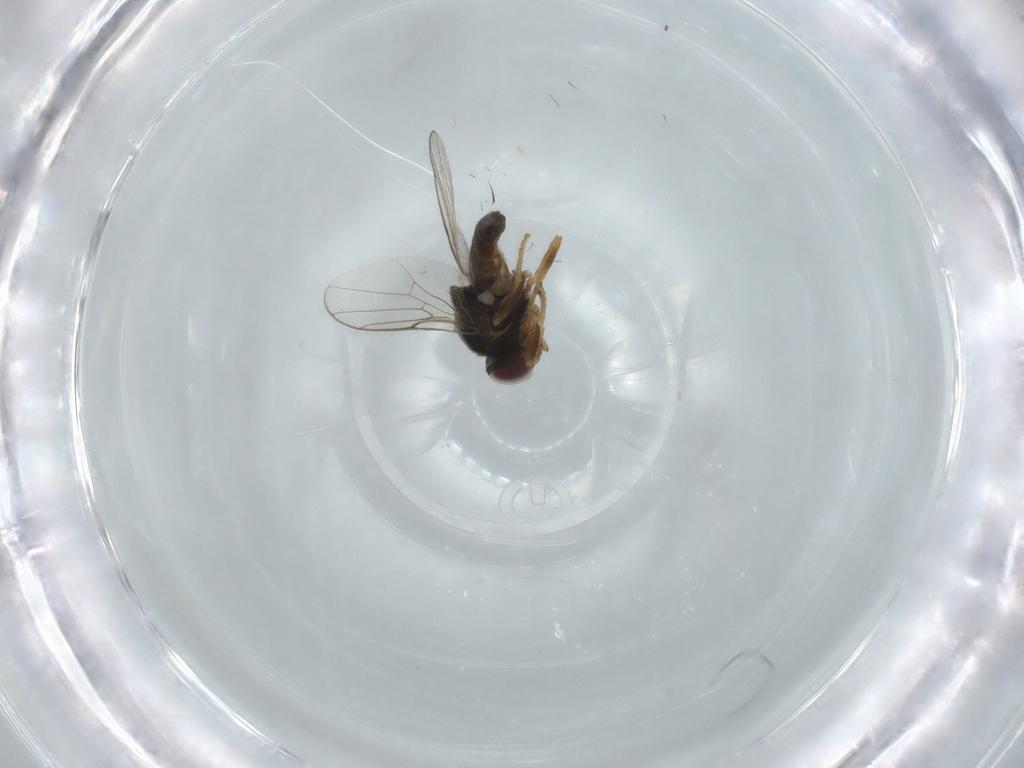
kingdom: Animalia
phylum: Arthropoda
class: Insecta
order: Diptera
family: Chloropidae
